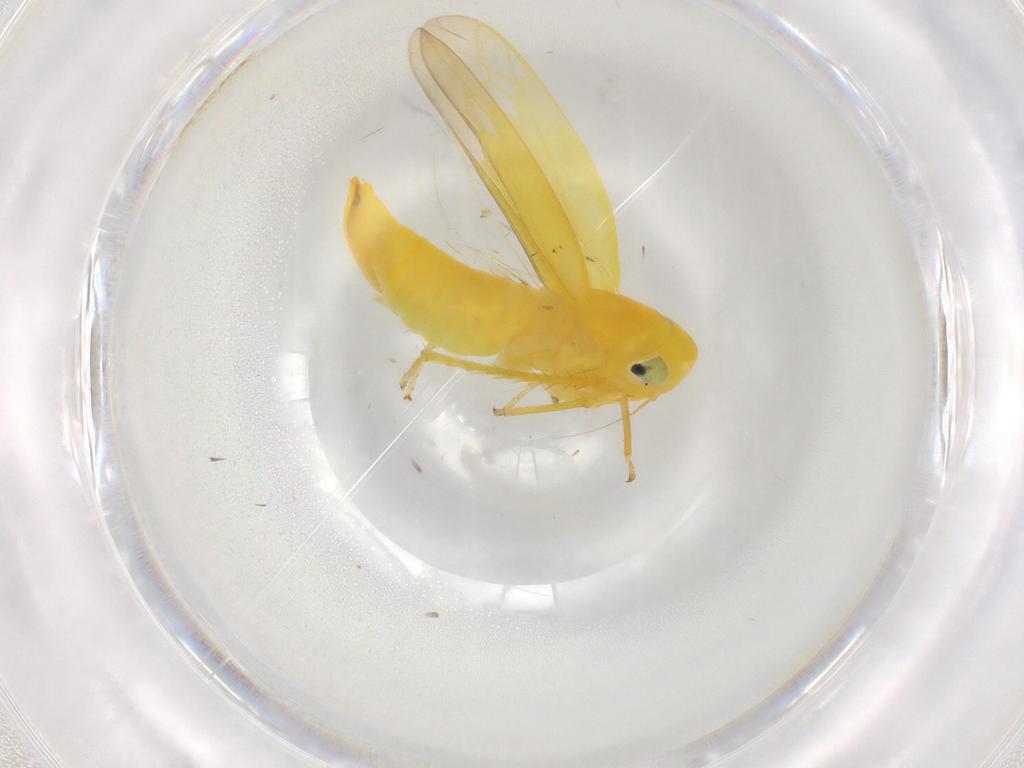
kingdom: Animalia
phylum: Arthropoda
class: Insecta
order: Hemiptera
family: Cicadellidae
